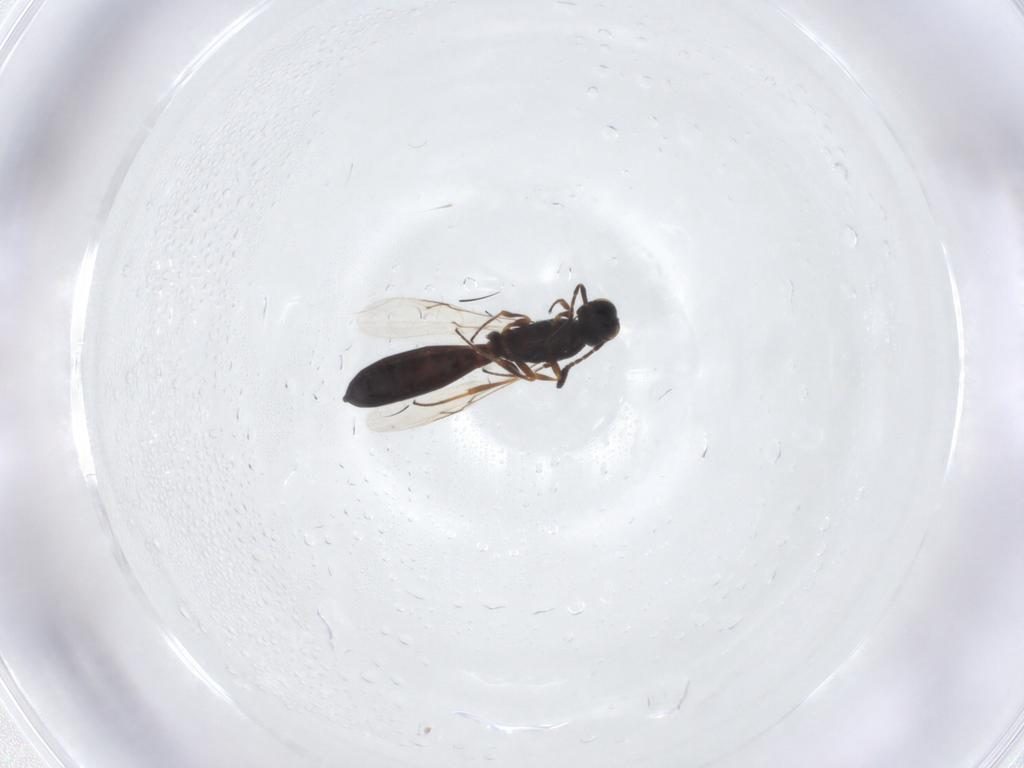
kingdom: Animalia
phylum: Arthropoda
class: Insecta
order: Hymenoptera
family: Scelionidae
